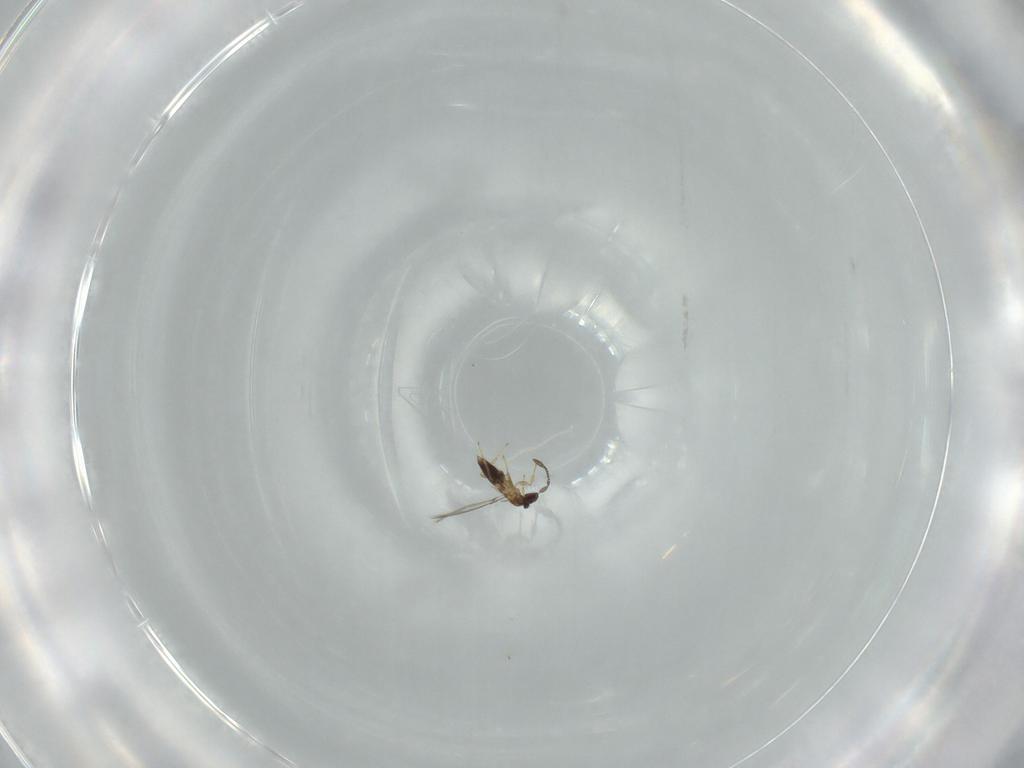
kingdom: Animalia
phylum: Arthropoda
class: Insecta
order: Hymenoptera
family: Mymaridae
